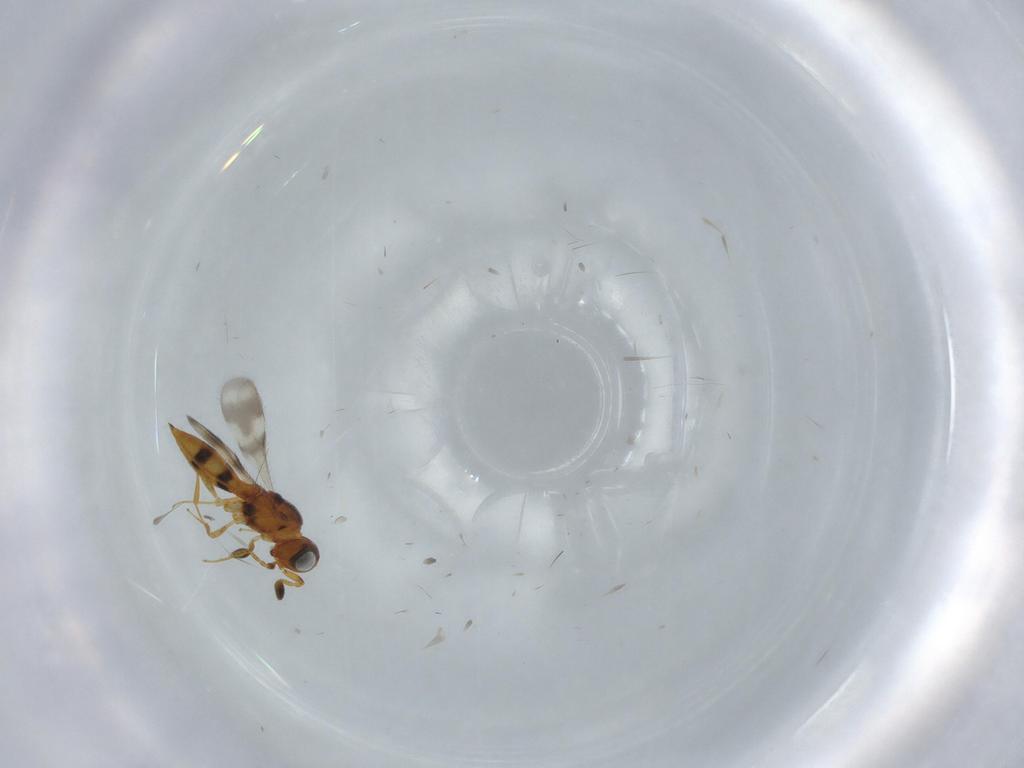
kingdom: Animalia
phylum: Arthropoda
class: Insecta
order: Hymenoptera
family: Scelionidae
